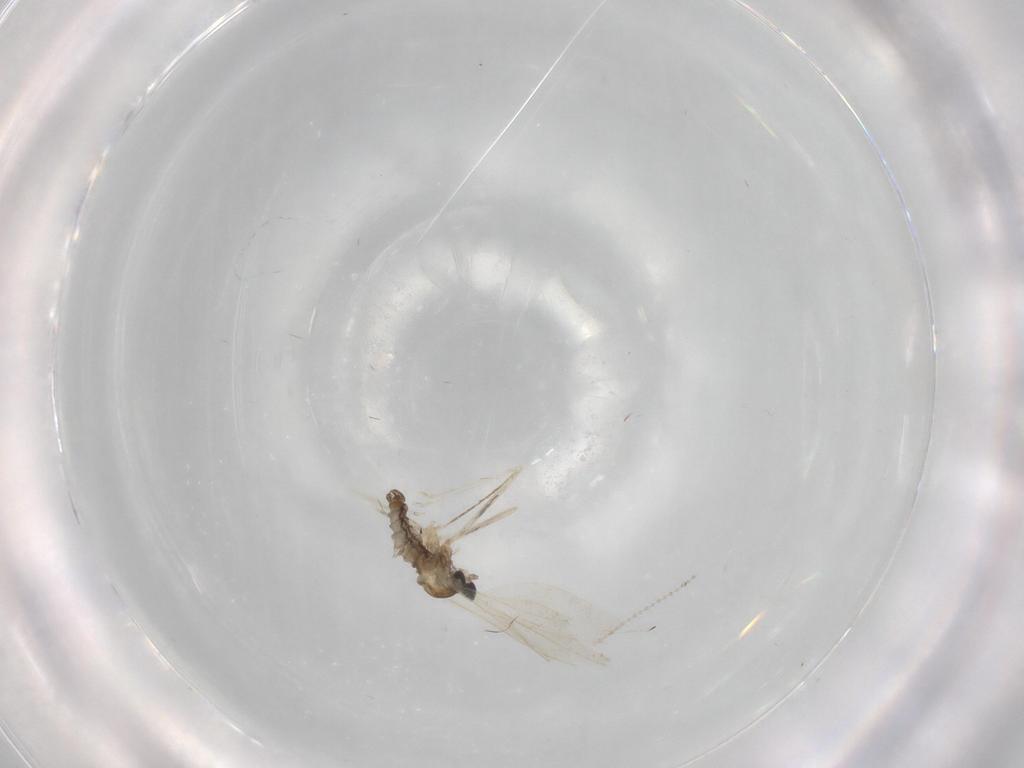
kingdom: Animalia
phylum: Arthropoda
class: Insecta
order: Diptera
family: Cecidomyiidae
